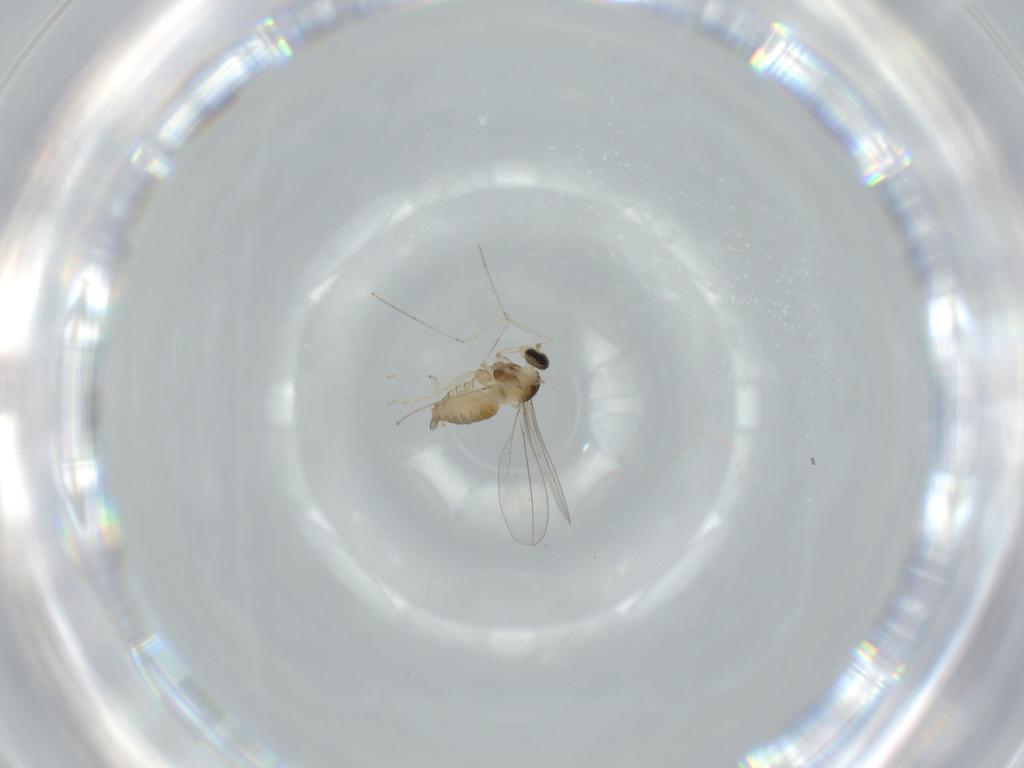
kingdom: Animalia
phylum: Arthropoda
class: Insecta
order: Diptera
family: Cecidomyiidae
